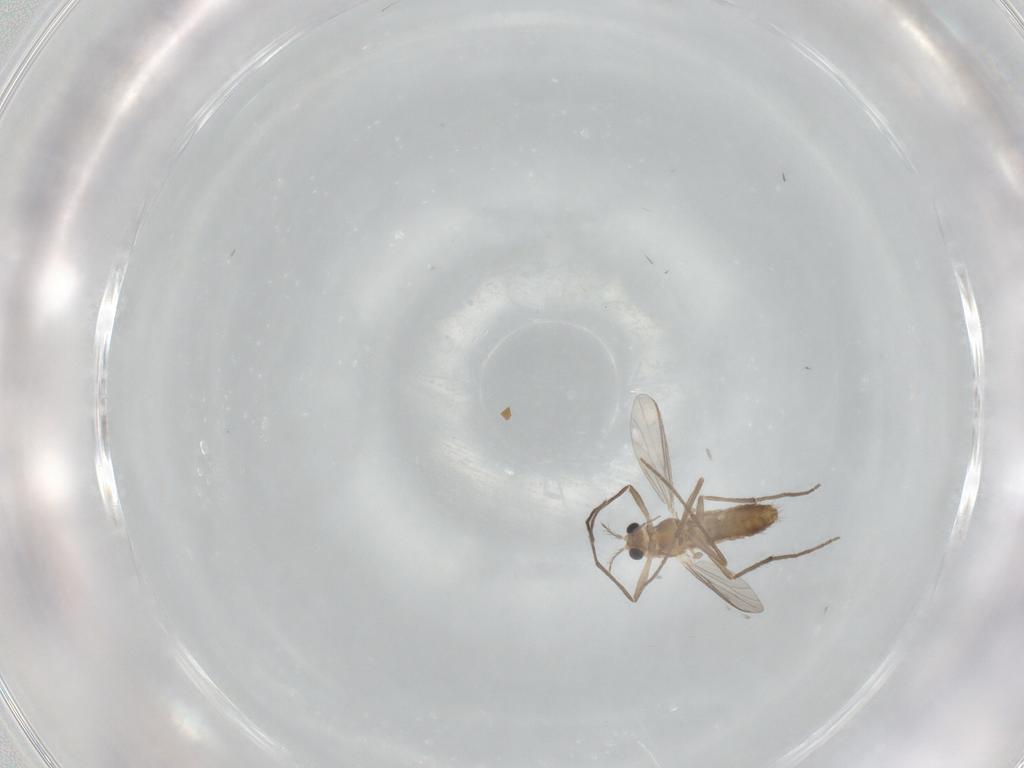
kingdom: Animalia
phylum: Arthropoda
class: Insecta
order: Diptera
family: Chironomidae
